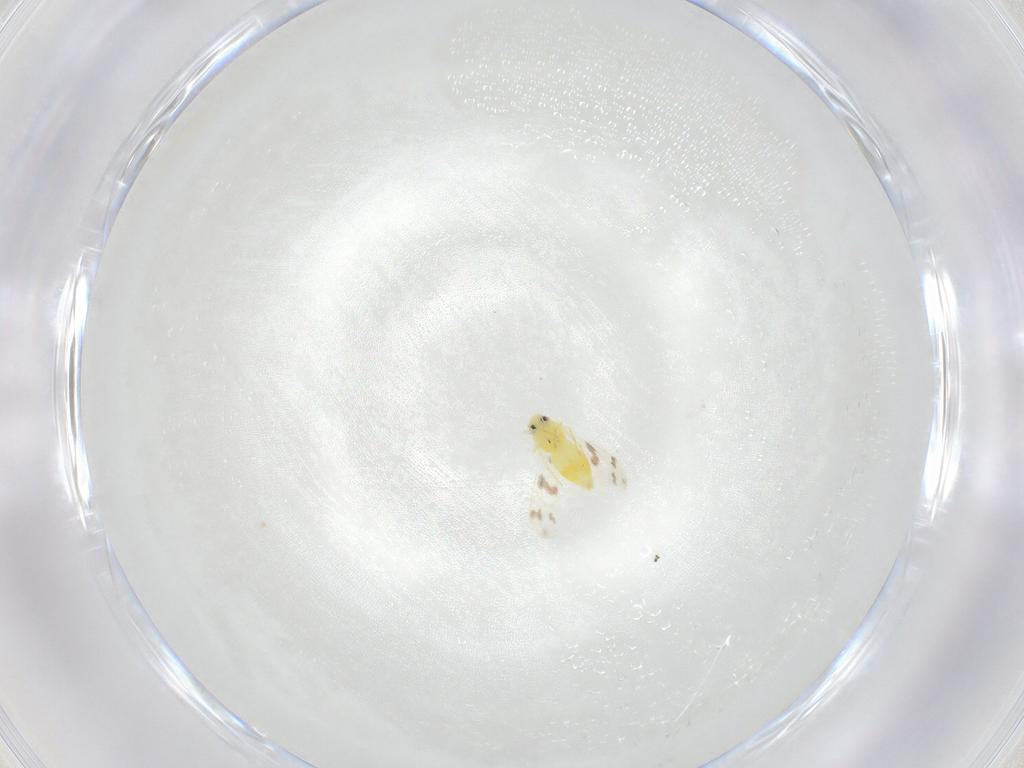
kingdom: Animalia
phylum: Arthropoda
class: Insecta
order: Hemiptera
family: Aleyrodidae
